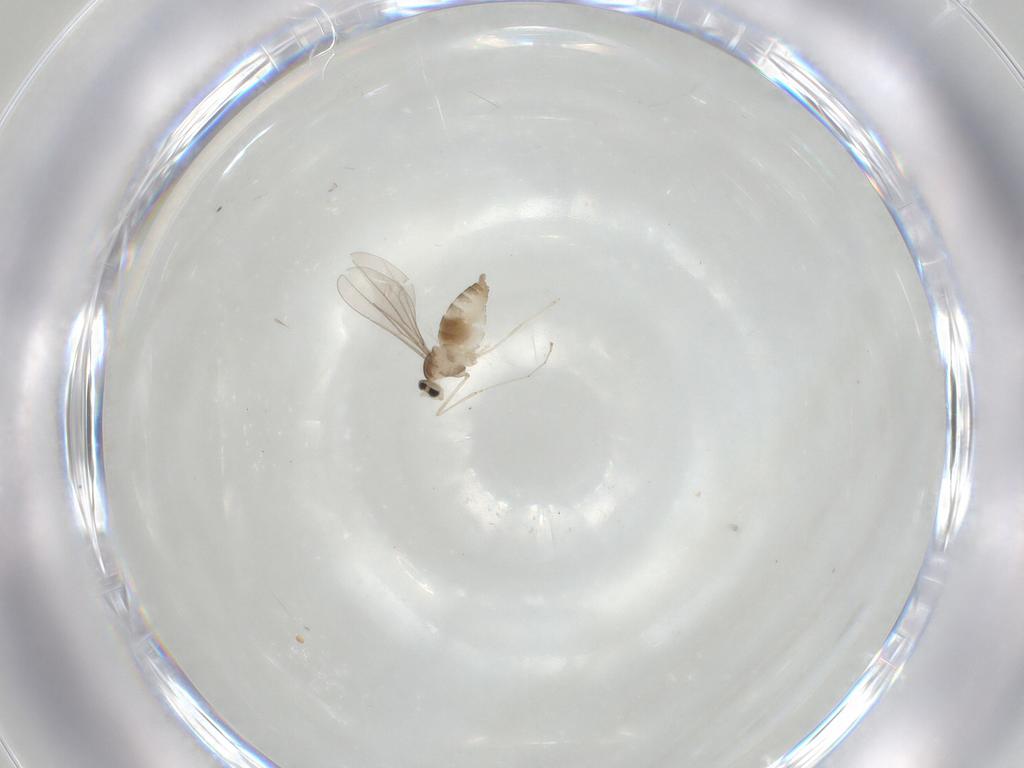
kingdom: Animalia
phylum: Arthropoda
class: Insecta
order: Diptera
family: Cecidomyiidae
